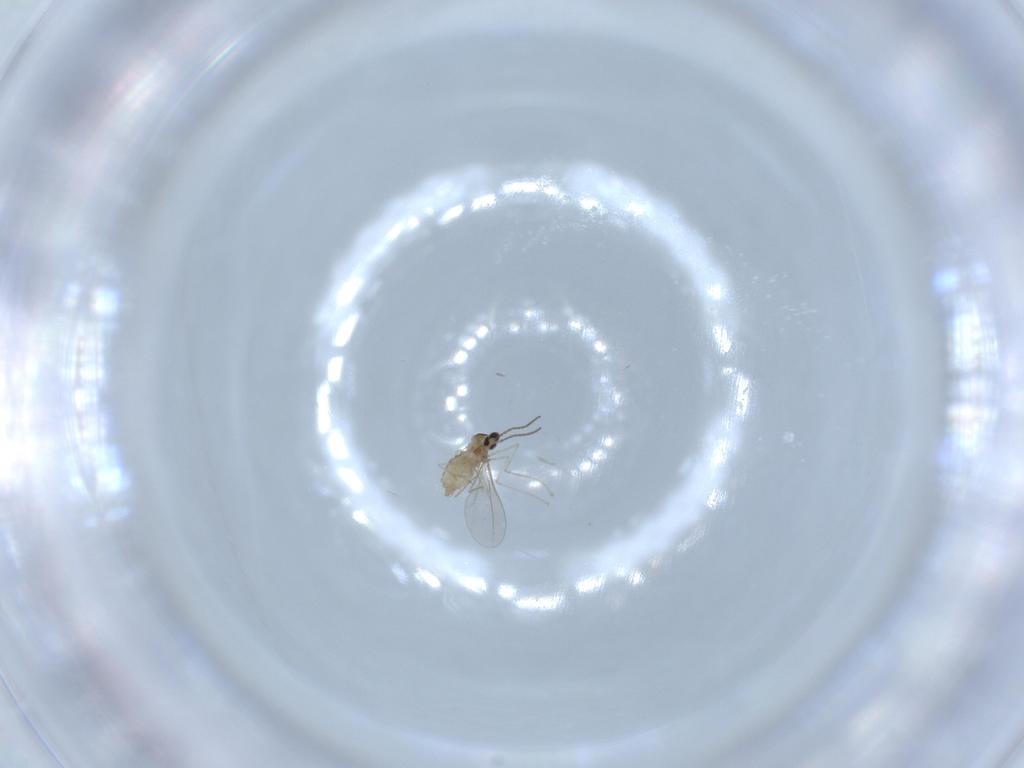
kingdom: Animalia
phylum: Arthropoda
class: Insecta
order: Diptera
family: Cecidomyiidae
